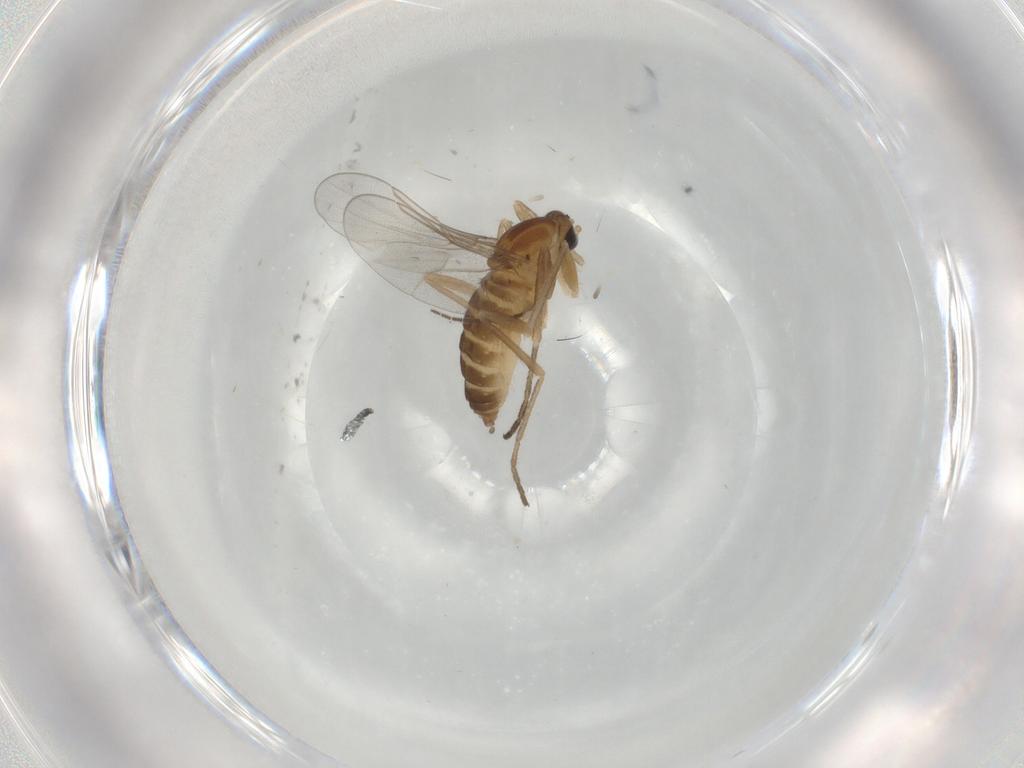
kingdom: Animalia
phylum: Arthropoda
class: Insecta
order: Diptera
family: Cecidomyiidae
